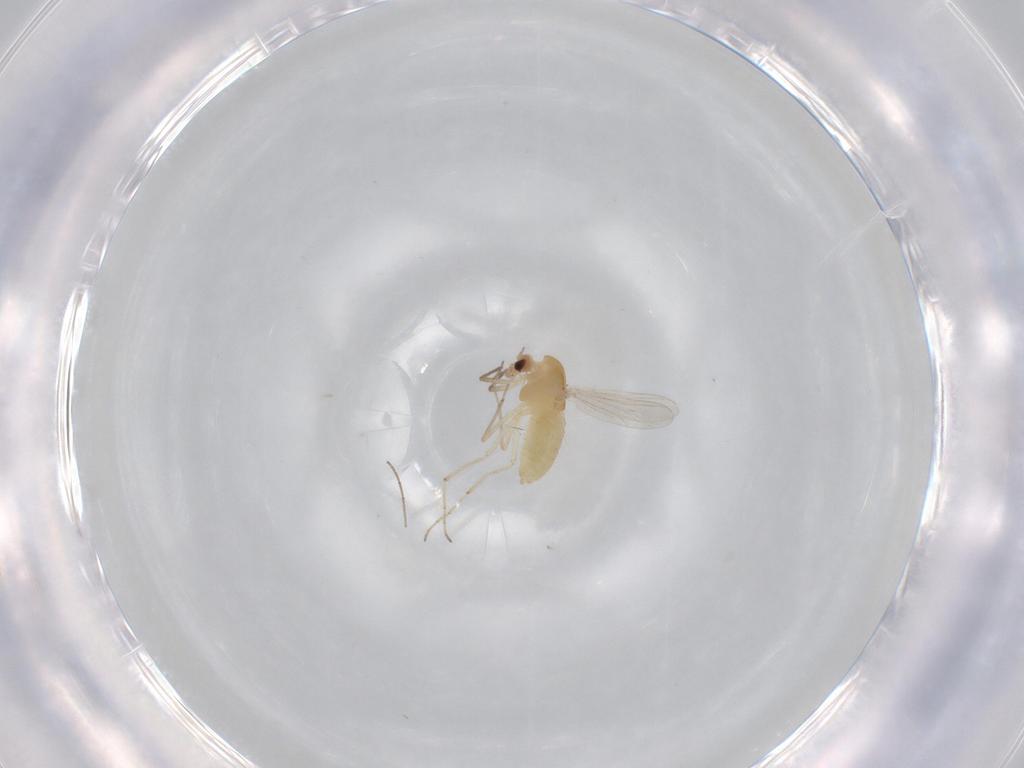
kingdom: Animalia
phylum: Arthropoda
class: Insecta
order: Diptera
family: Chironomidae
